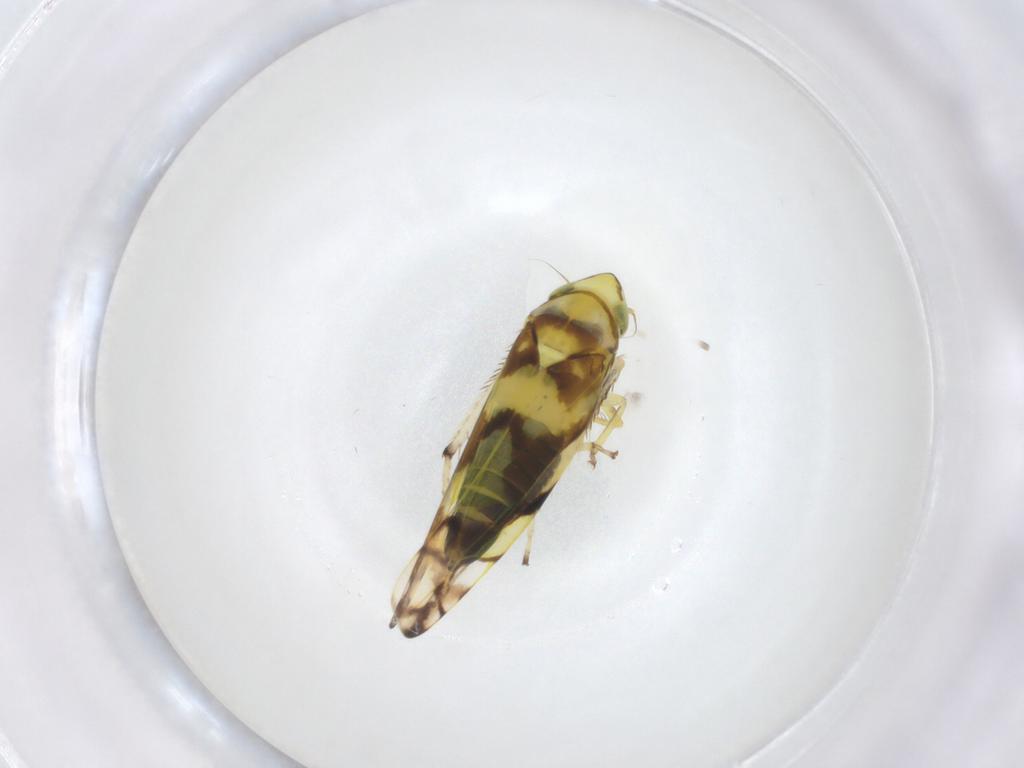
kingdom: Animalia
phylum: Arthropoda
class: Insecta
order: Hemiptera
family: Cicadellidae
